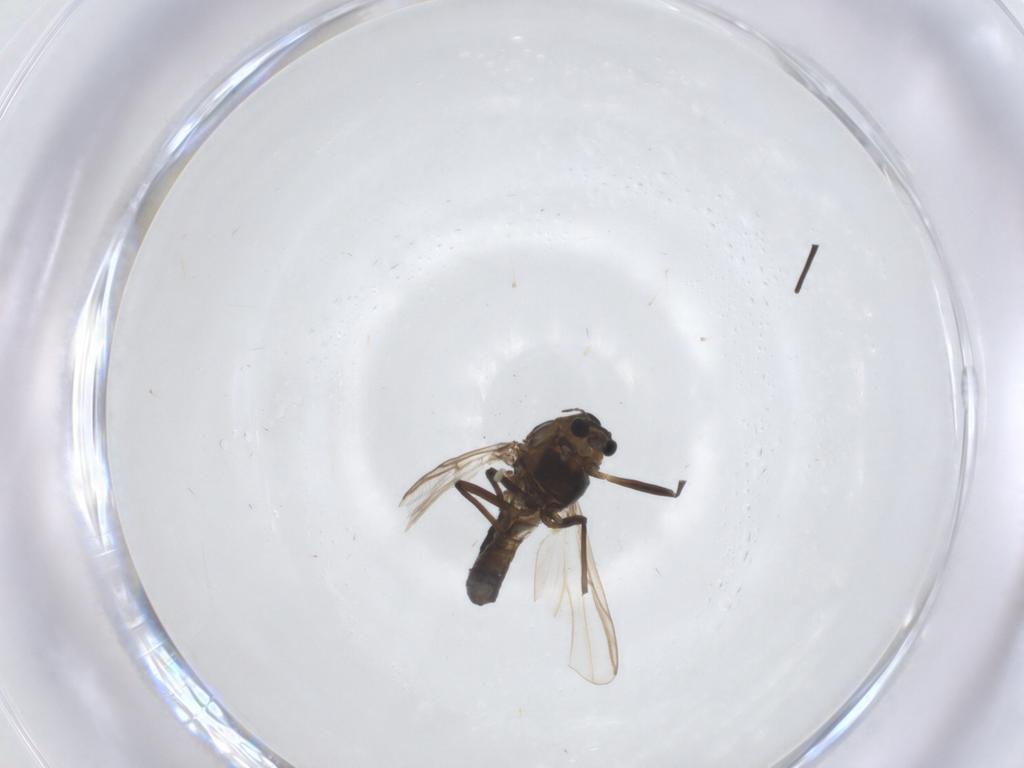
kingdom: Animalia
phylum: Arthropoda
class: Insecta
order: Diptera
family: Chironomidae
